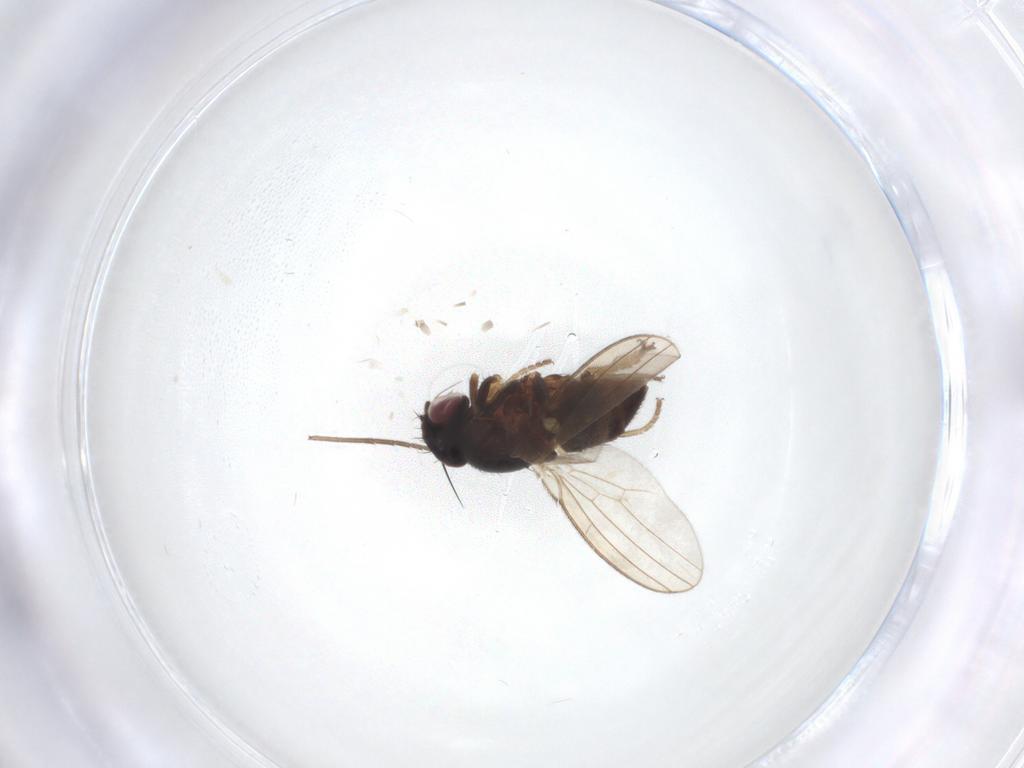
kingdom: Animalia
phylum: Arthropoda
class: Insecta
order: Diptera
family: Milichiidae
